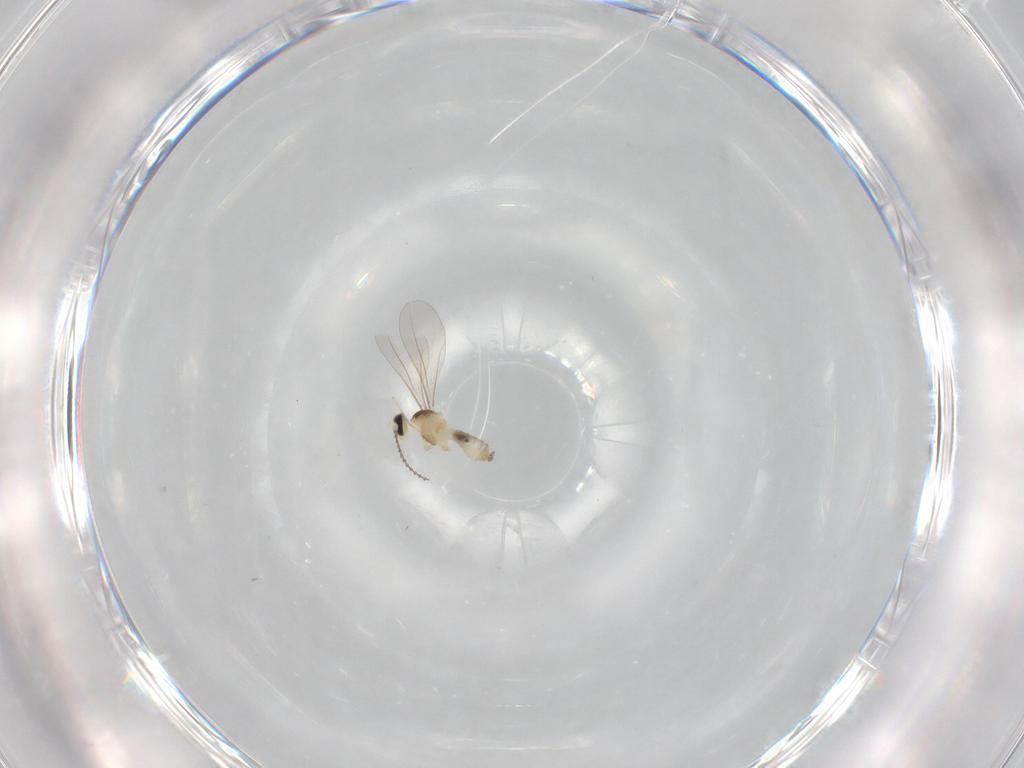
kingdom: Animalia
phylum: Arthropoda
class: Insecta
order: Diptera
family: Cecidomyiidae
